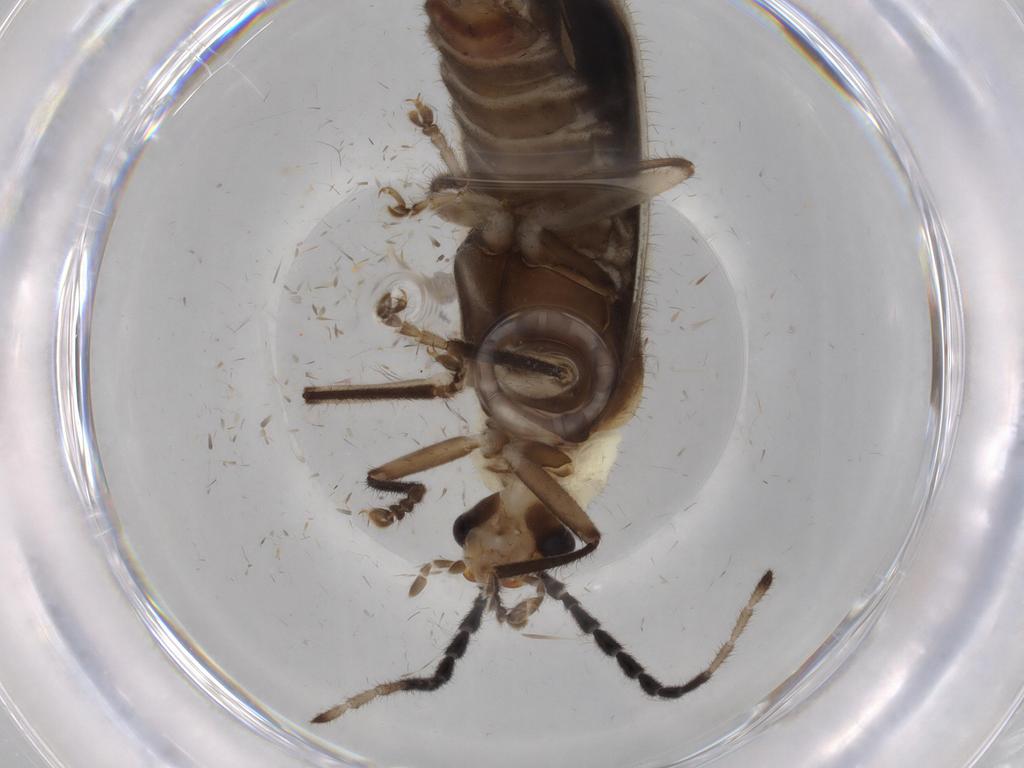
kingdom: Animalia
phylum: Arthropoda
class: Insecta
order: Coleoptera
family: Cantharidae
